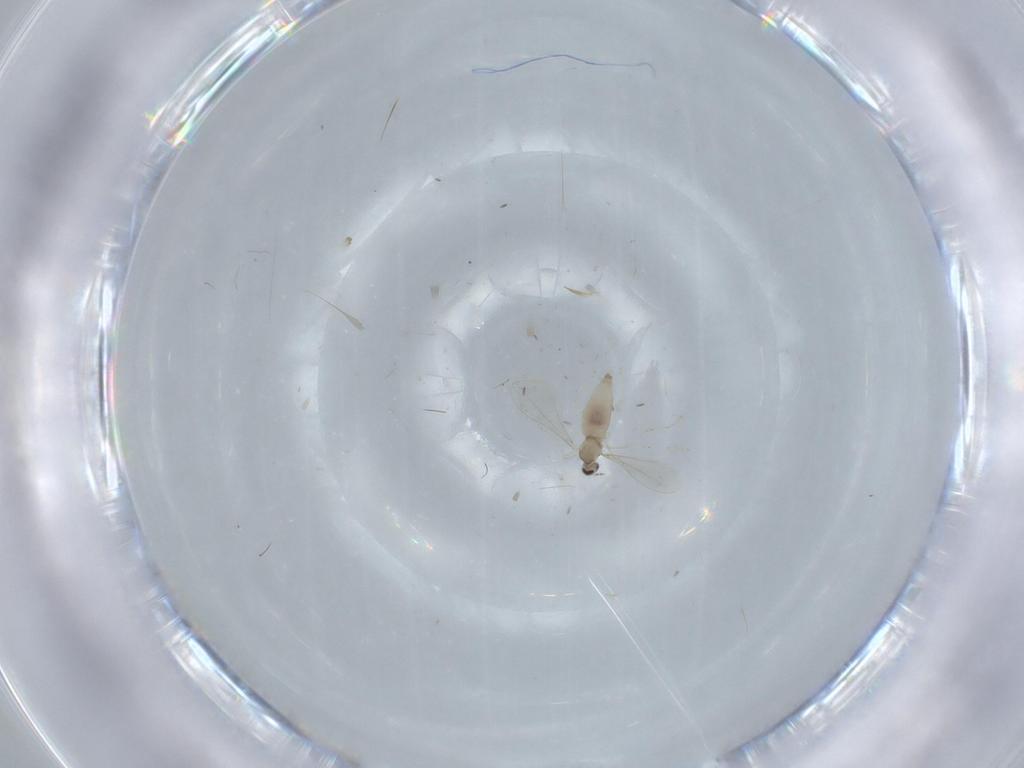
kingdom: Animalia
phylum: Arthropoda
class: Insecta
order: Diptera
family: Cecidomyiidae
